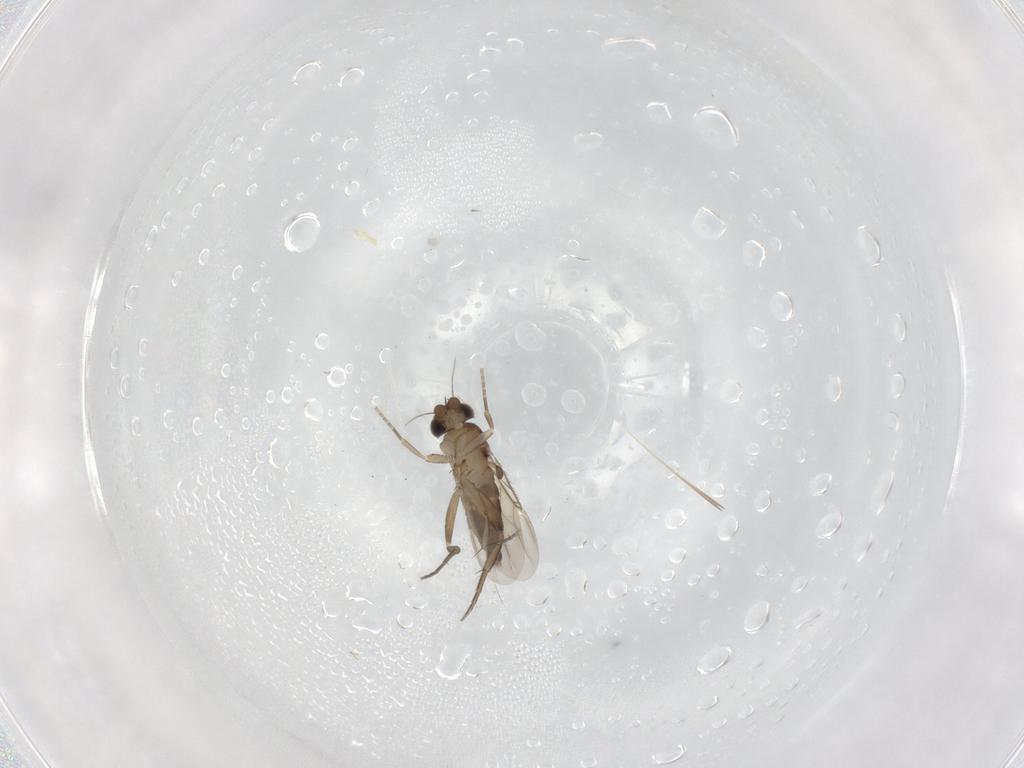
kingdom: Animalia
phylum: Arthropoda
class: Insecta
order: Diptera
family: Phoridae
